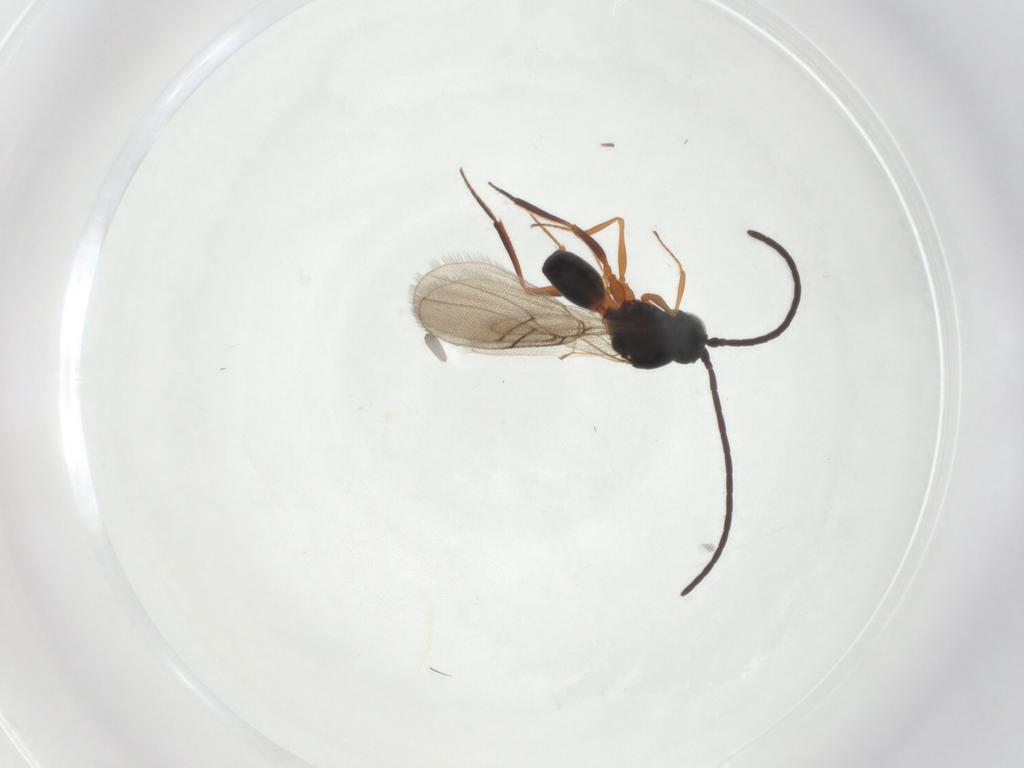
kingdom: Animalia
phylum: Arthropoda
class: Insecta
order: Hymenoptera
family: Figitidae
